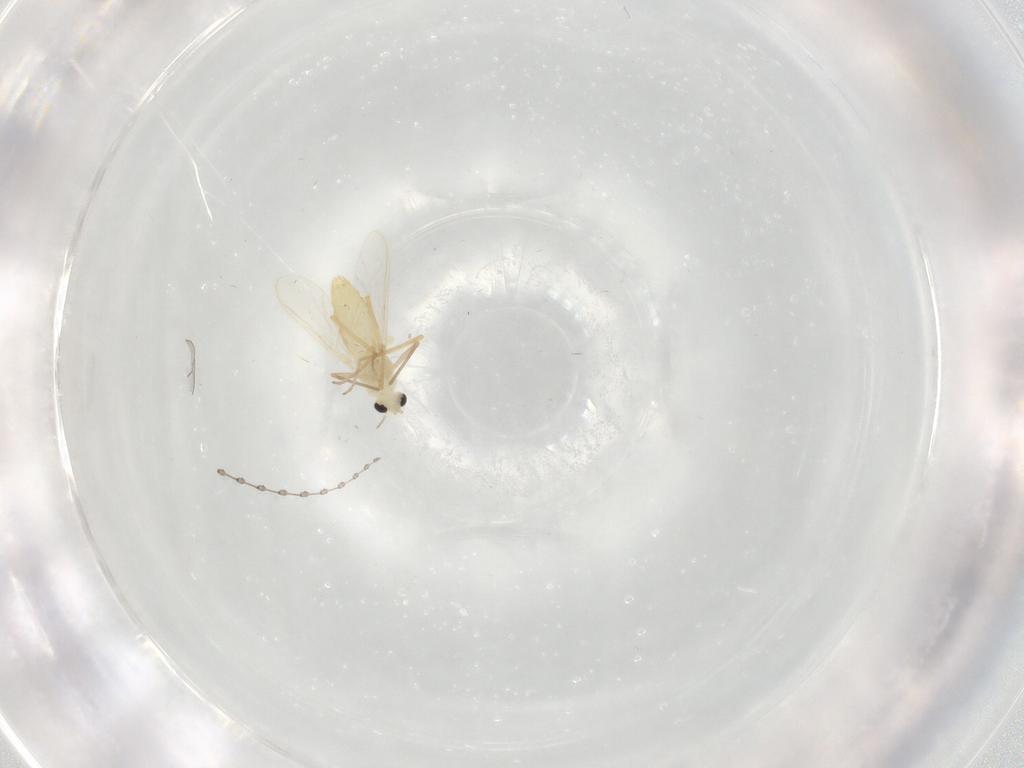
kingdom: Animalia
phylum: Arthropoda
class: Insecta
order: Diptera
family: Chironomidae
